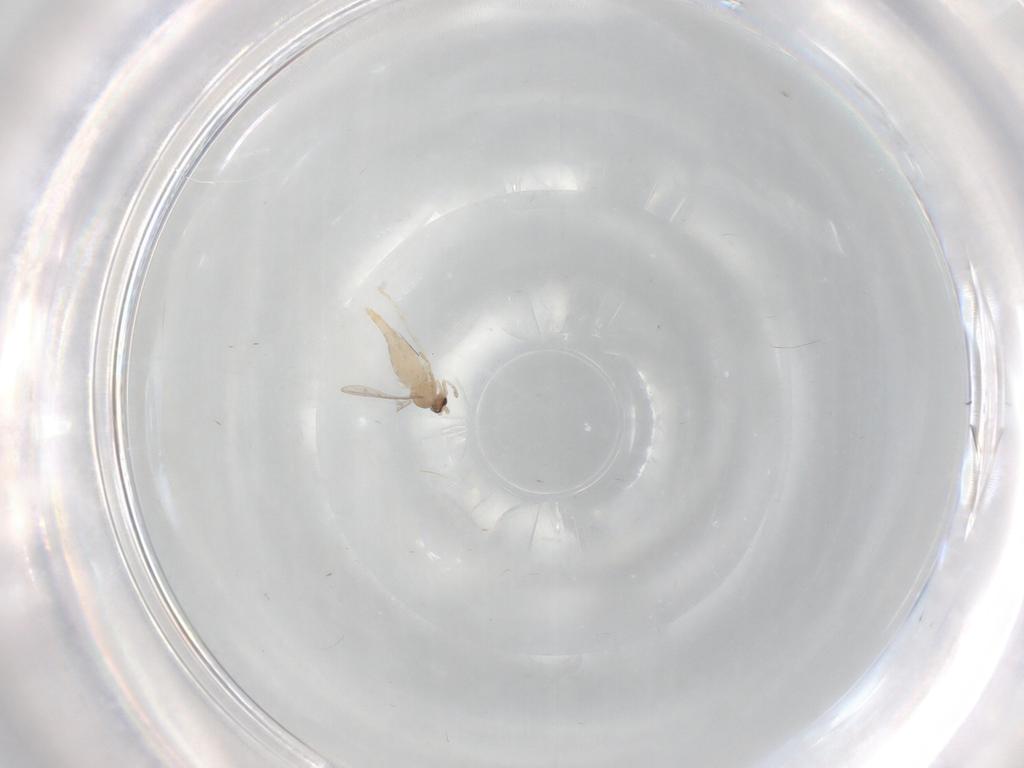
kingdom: Animalia
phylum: Arthropoda
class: Insecta
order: Diptera
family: Cecidomyiidae
